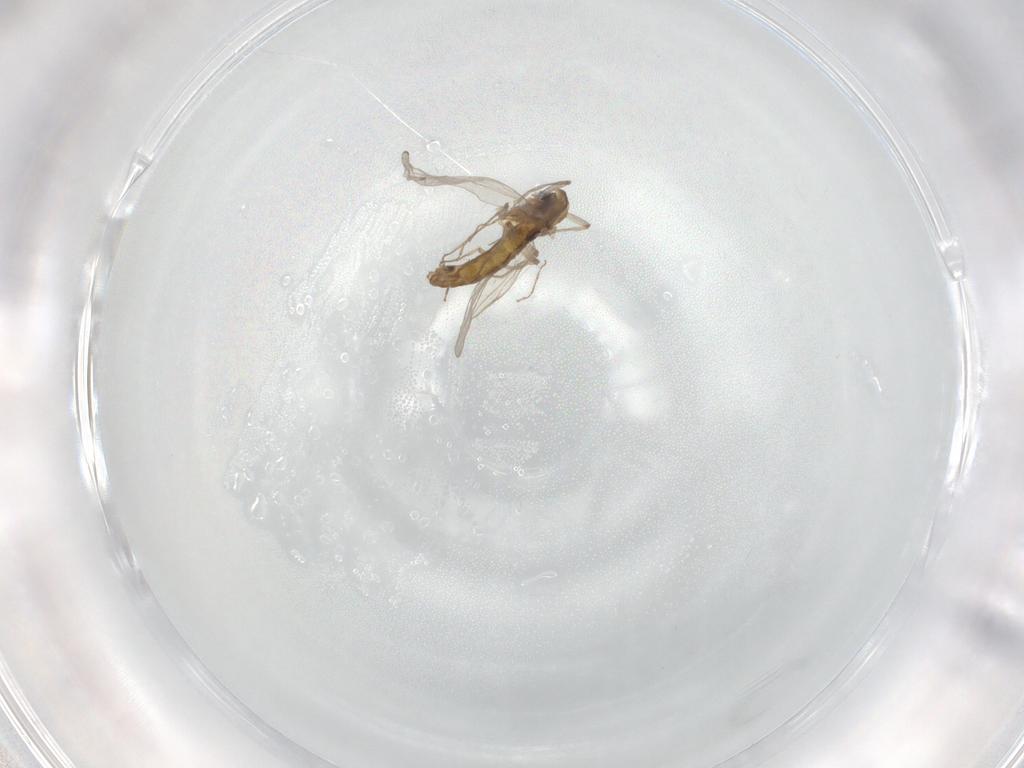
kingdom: Animalia
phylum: Arthropoda
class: Insecta
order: Diptera
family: Chironomidae
